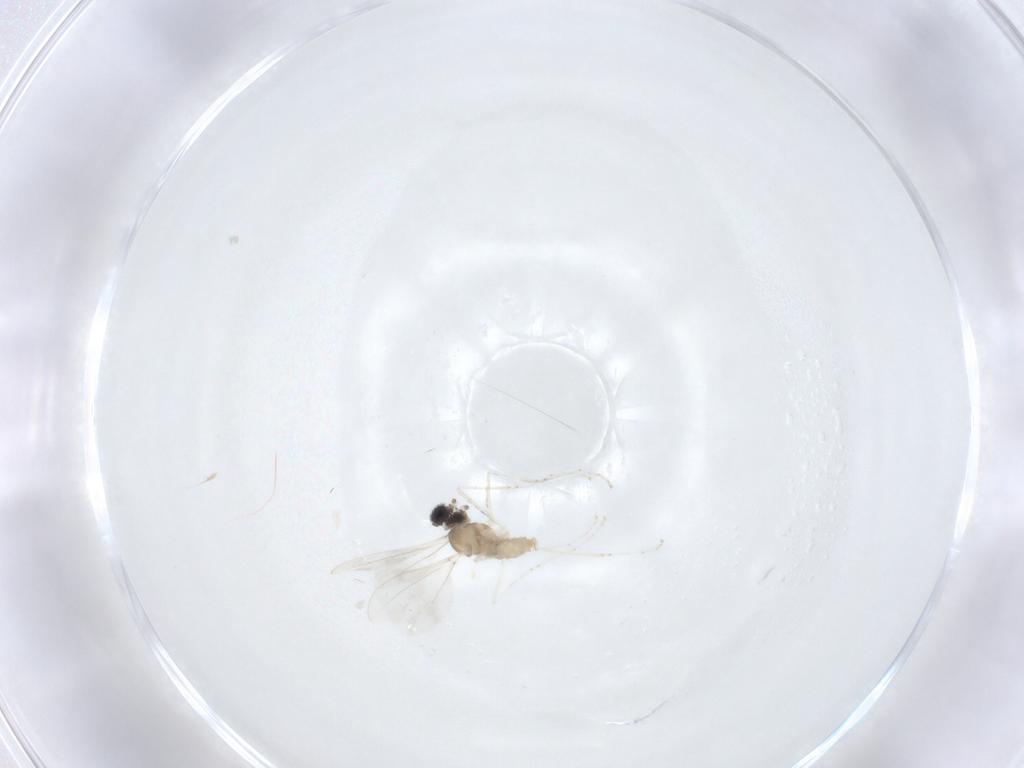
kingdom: Animalia
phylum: Arthropoda
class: Insecta
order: Diptera
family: Cecidomyiidae
